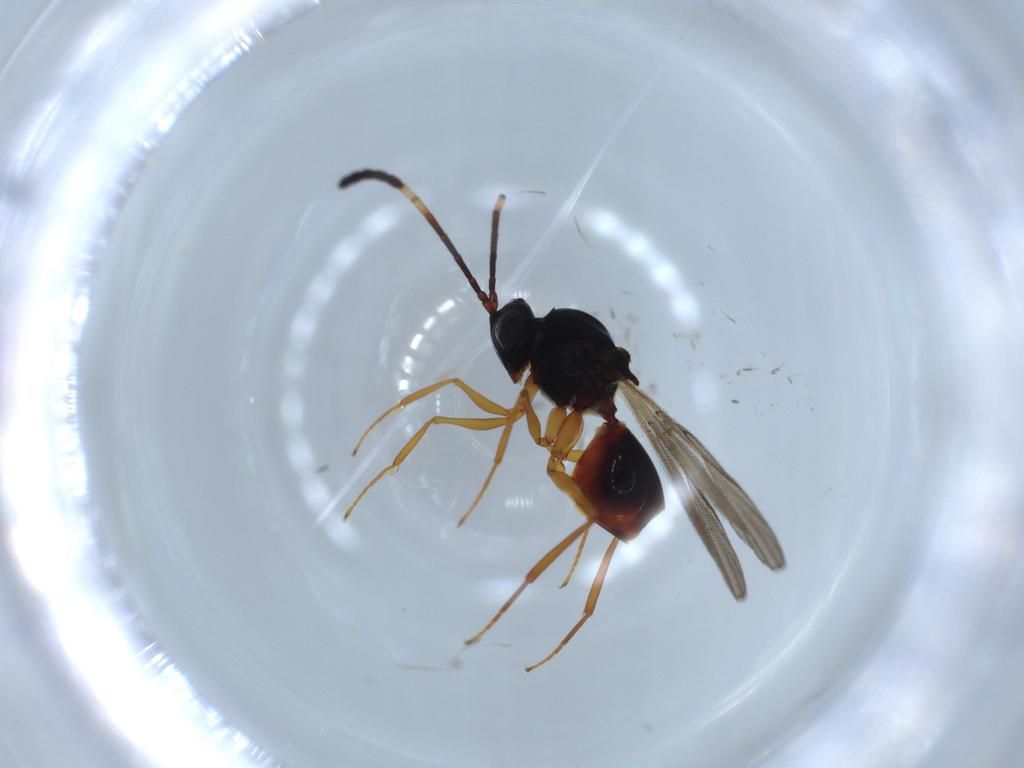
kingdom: Animalia
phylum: Arthropoda
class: Insecta
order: Hymenoptera
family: Figitidae
